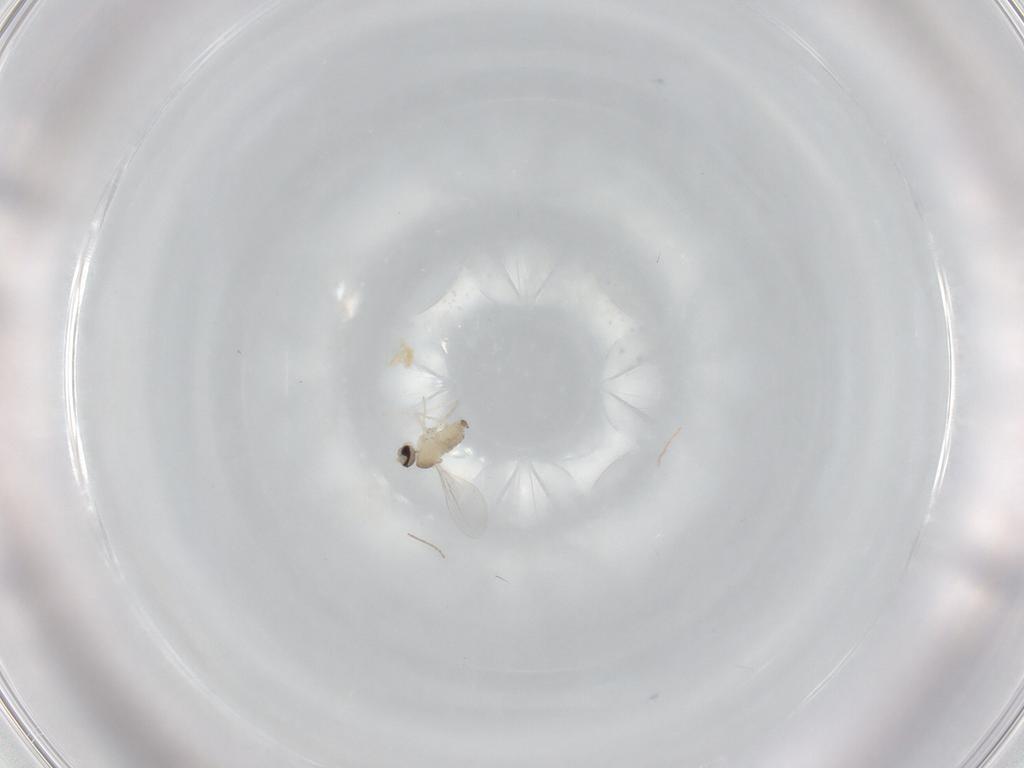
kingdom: Animalia
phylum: Arthropoda
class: Insecta
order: Diptera
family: Cecidomyiidae
